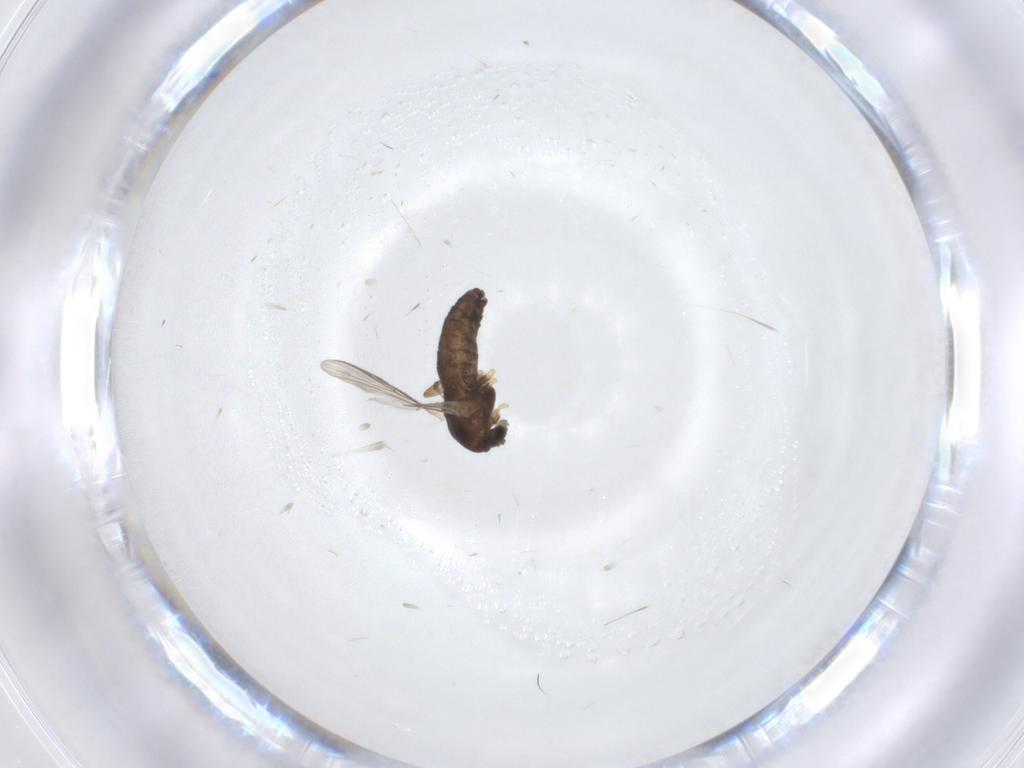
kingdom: Animalia
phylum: Arthropoda
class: Insecta
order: Diptera
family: Chironomidae
